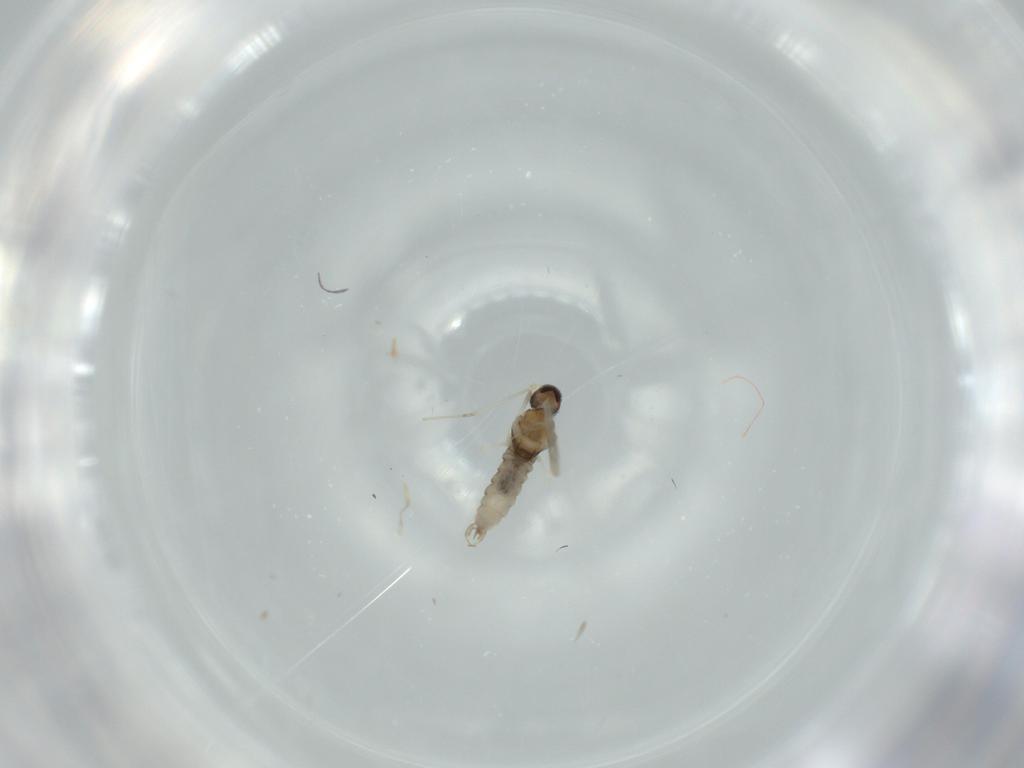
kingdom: Animalia
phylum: Arthropoda
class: Insecta
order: Diptera
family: Cecidomyiidae
